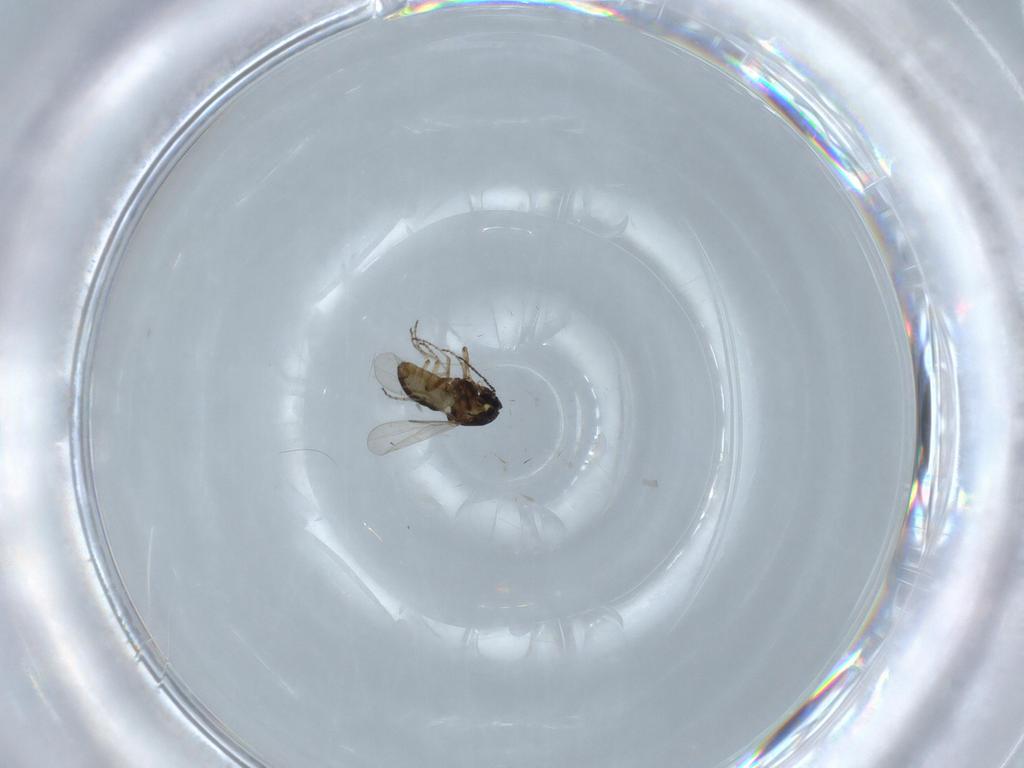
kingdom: Animalia
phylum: Arthropoda
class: Insecta
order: Diptera
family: Ceratopogonidae
